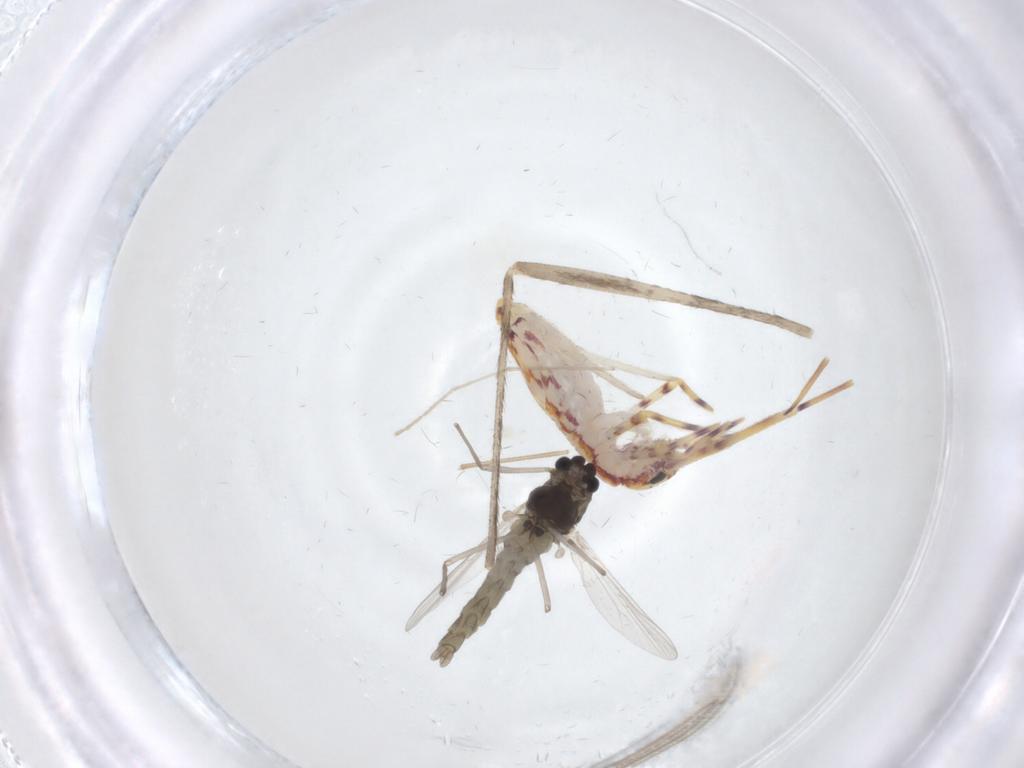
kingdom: Animalia
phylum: Arthropoda
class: Insecta
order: Diptera
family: Chironomidae
